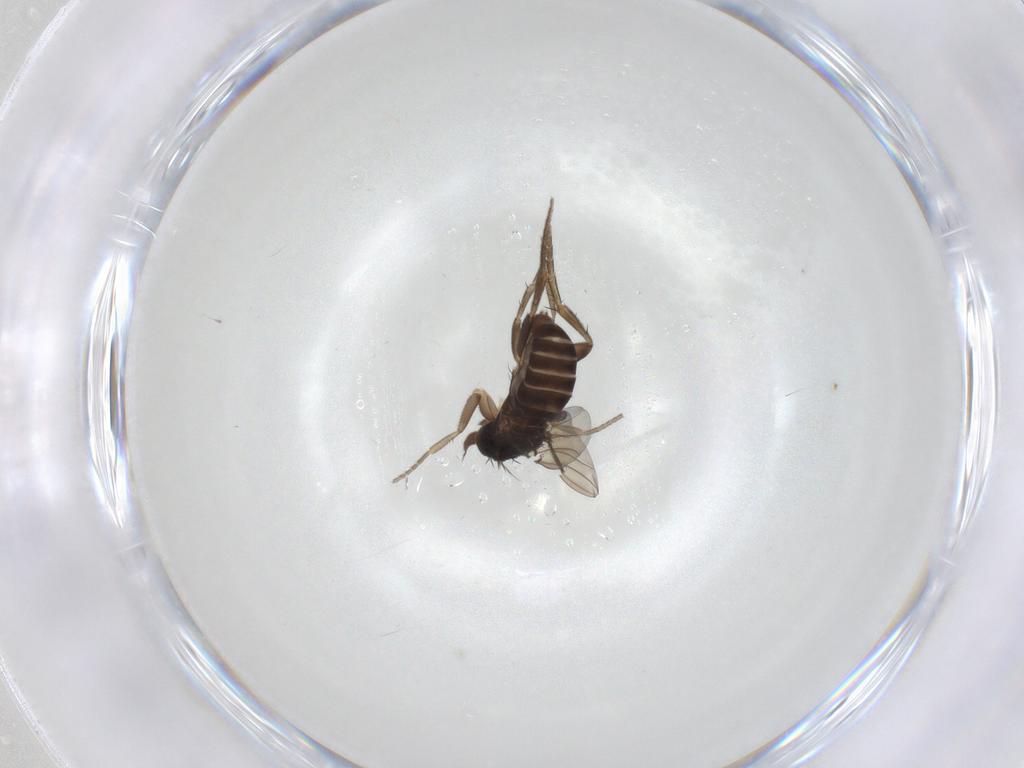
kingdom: Animalia
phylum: Arthropoda
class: Insecta
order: Diptera
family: Phoridae
